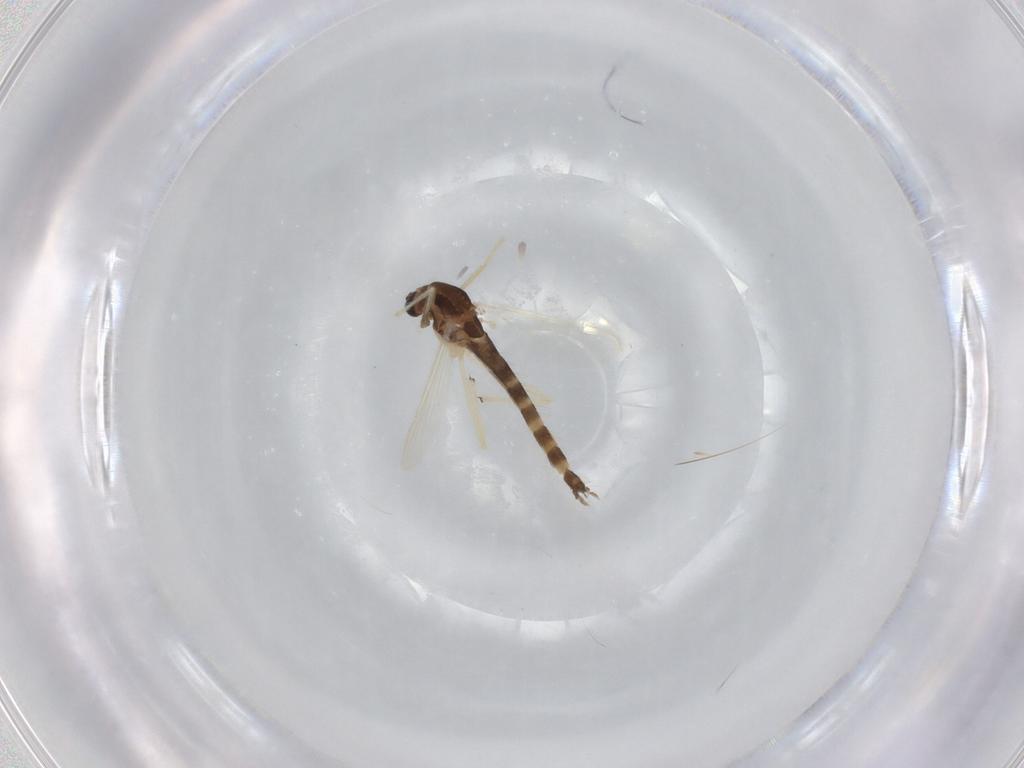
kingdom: Animalia
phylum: Arthropoda
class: Insecta
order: Diptera
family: Chironomidae
